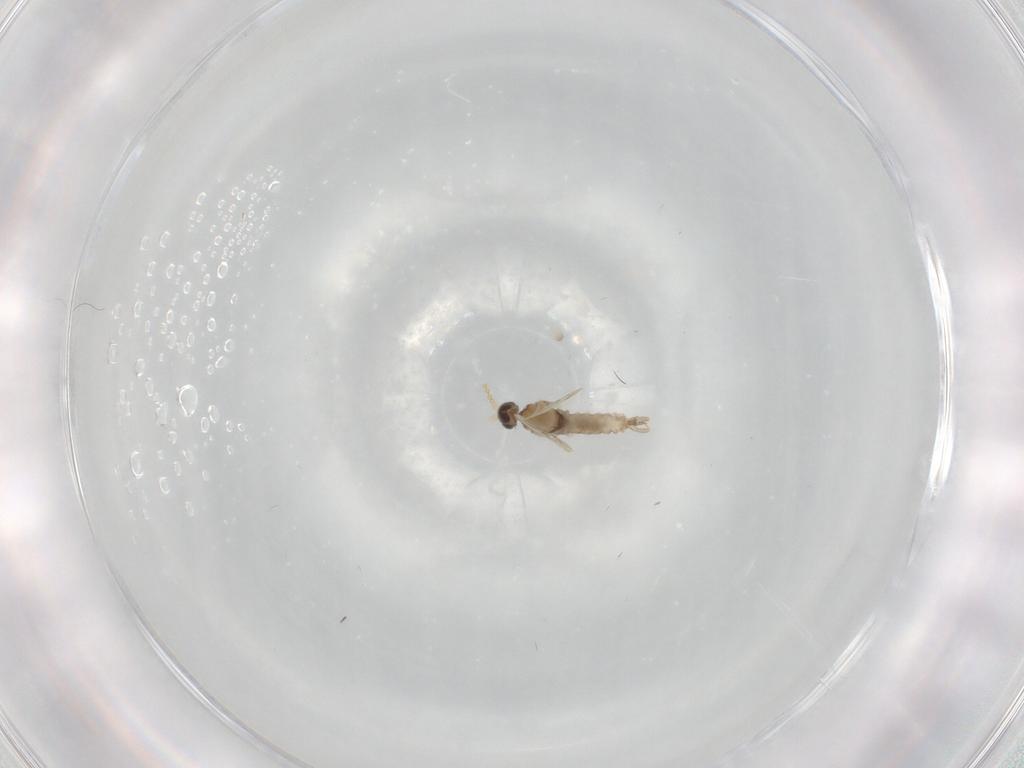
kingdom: Animalia
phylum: Arthropoda
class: Insecta
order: Diptera
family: Cecidomyiidae
